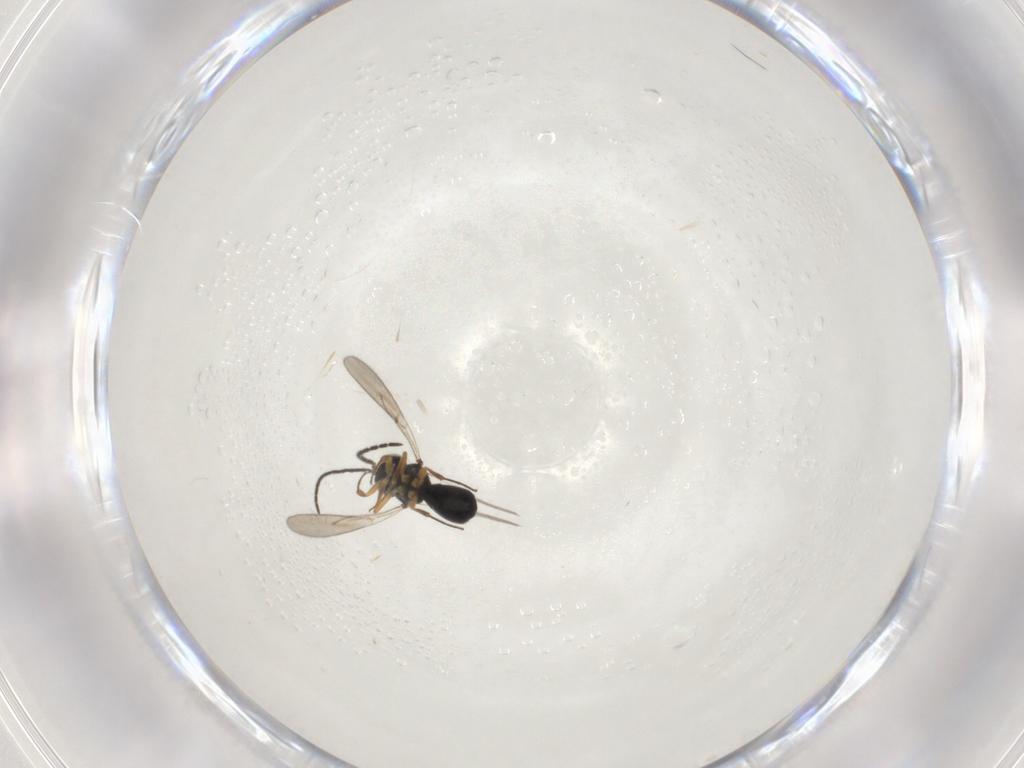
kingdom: Animalia
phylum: Arthropoda
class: Insecta
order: Hymenoptera
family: Scelionidae
